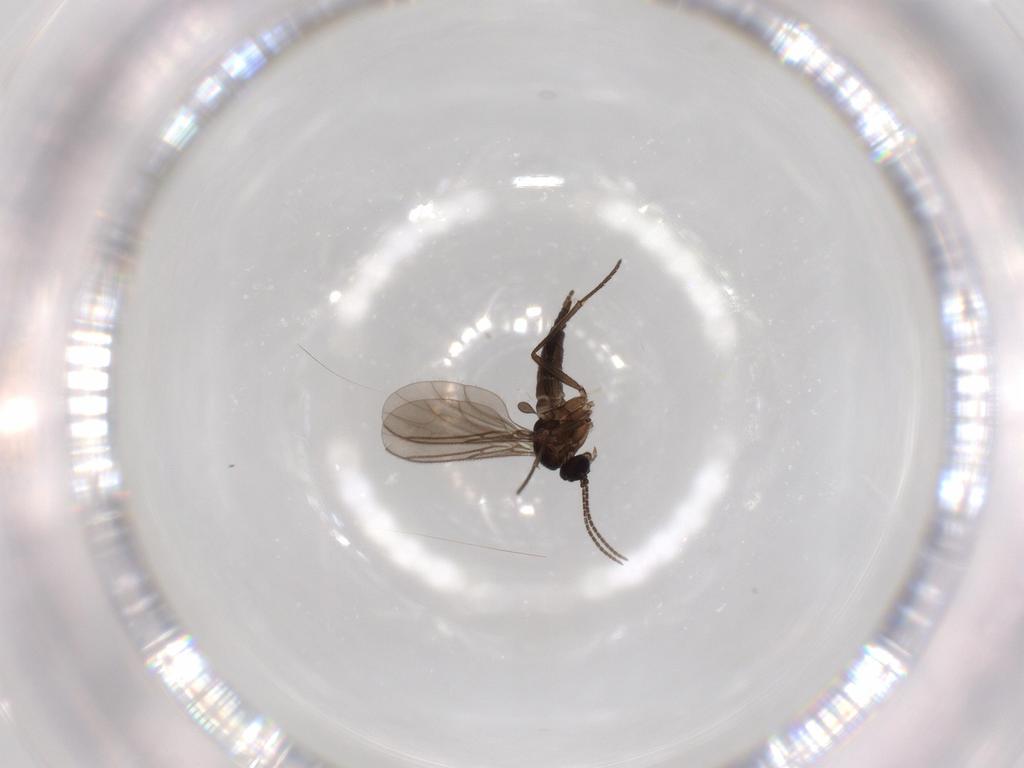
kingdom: Animalia
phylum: Arthropoda
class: Insecta
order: Diptera
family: Sciaridae
